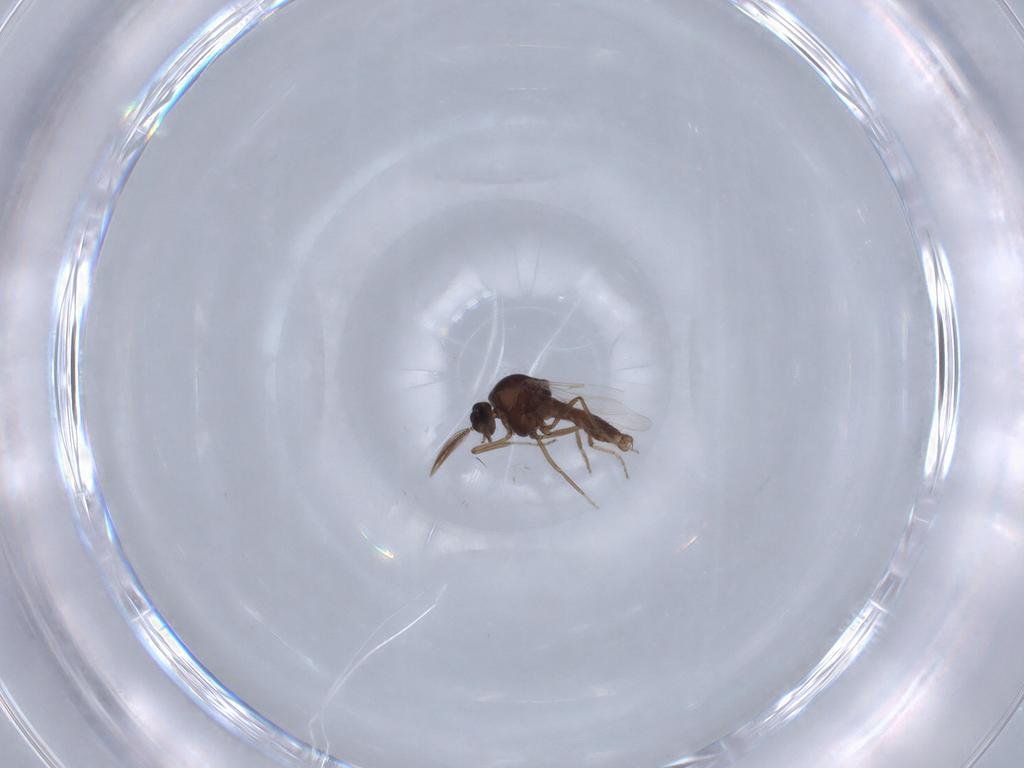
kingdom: Animalia
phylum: Arthropoda
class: Insecta
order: Diptera
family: Ceratopogonidae
